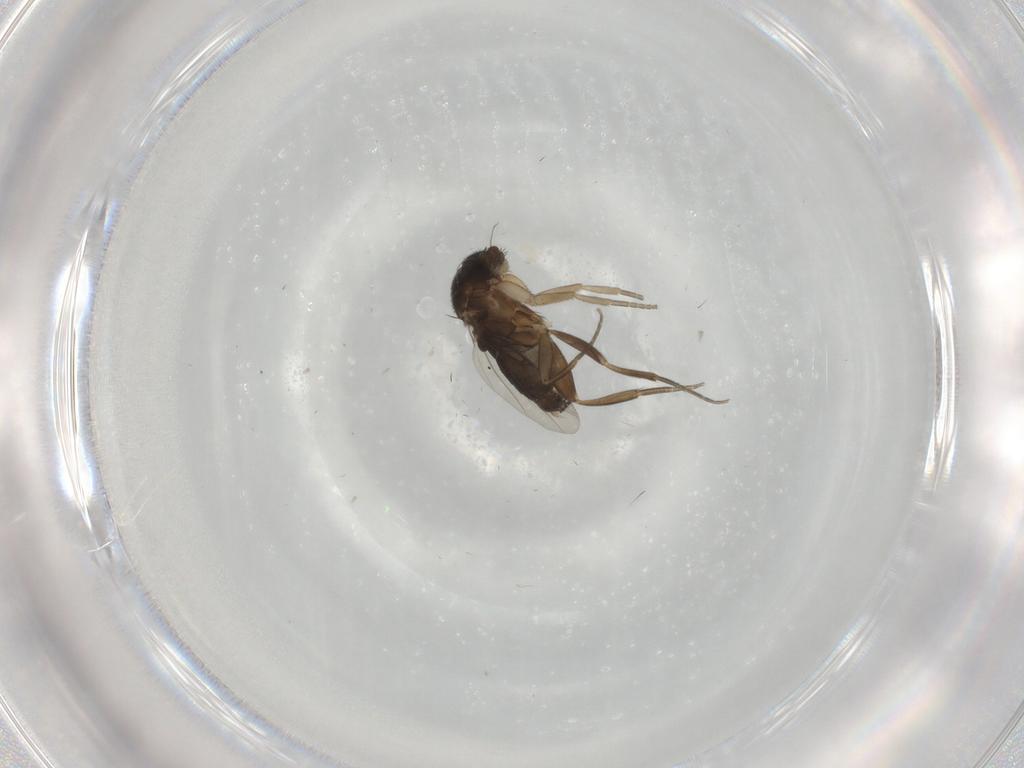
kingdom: Animalia
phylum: Arthropoda
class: Insecta
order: Diptera
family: Phoridae
